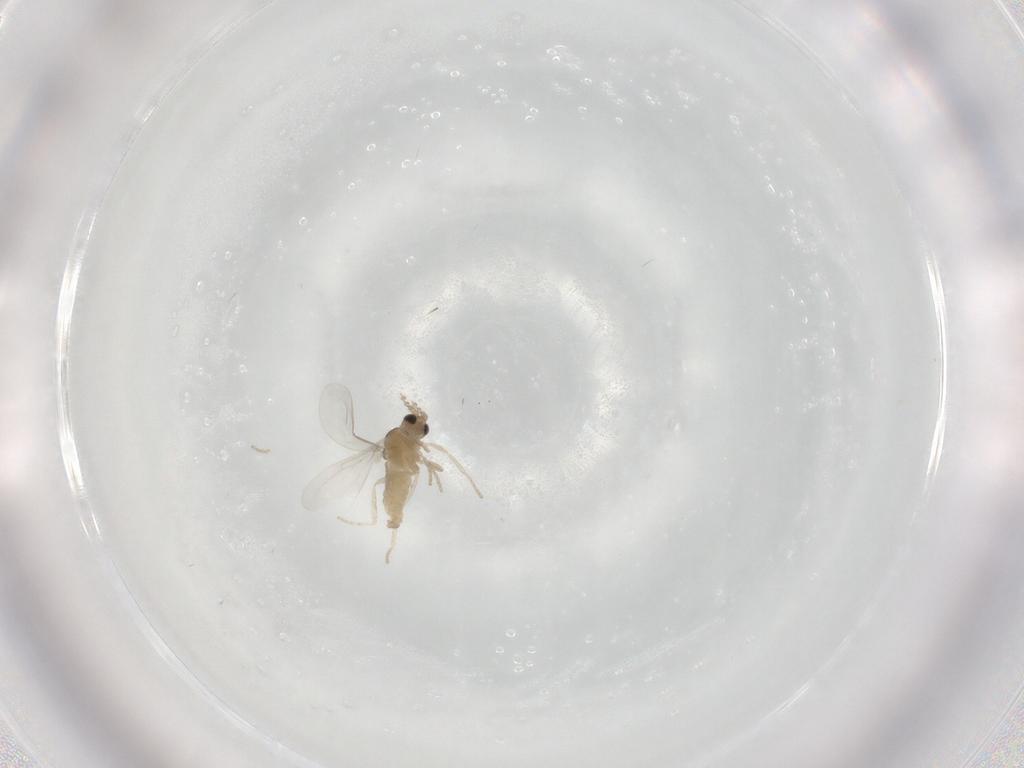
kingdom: Animalia
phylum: Arthropoda
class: Insecta
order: Diptera
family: Cecidomyiidae
